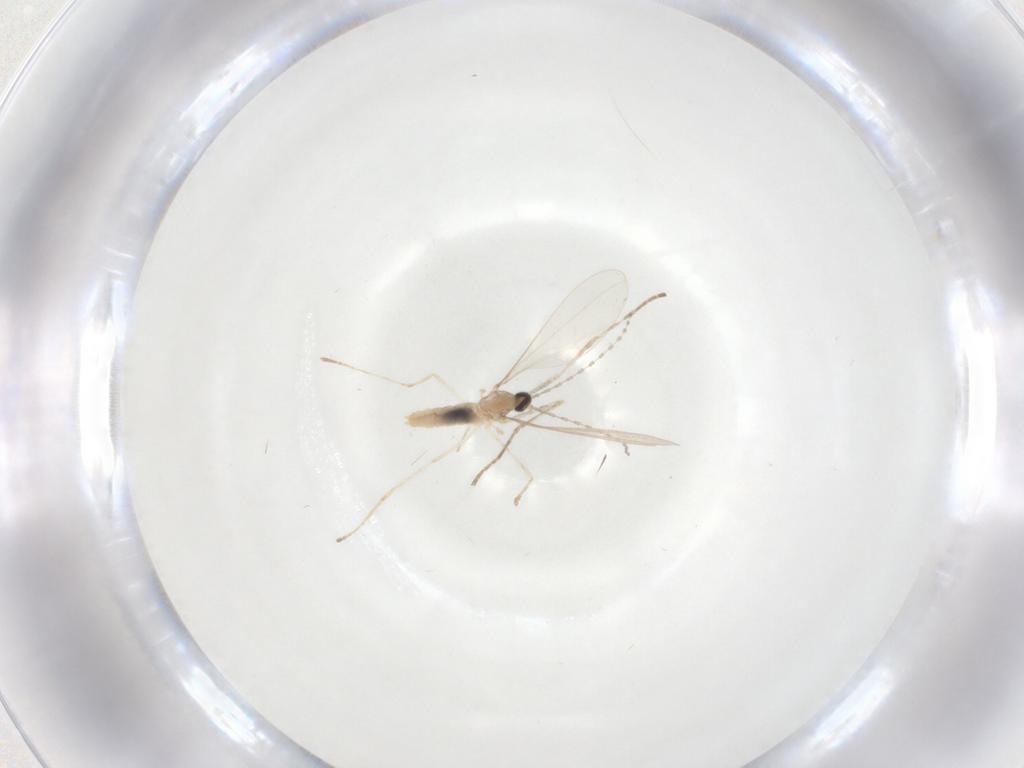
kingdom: Animalia
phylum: Arthropoda
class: Insecta
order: Diptera
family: Cecidomyiidae
